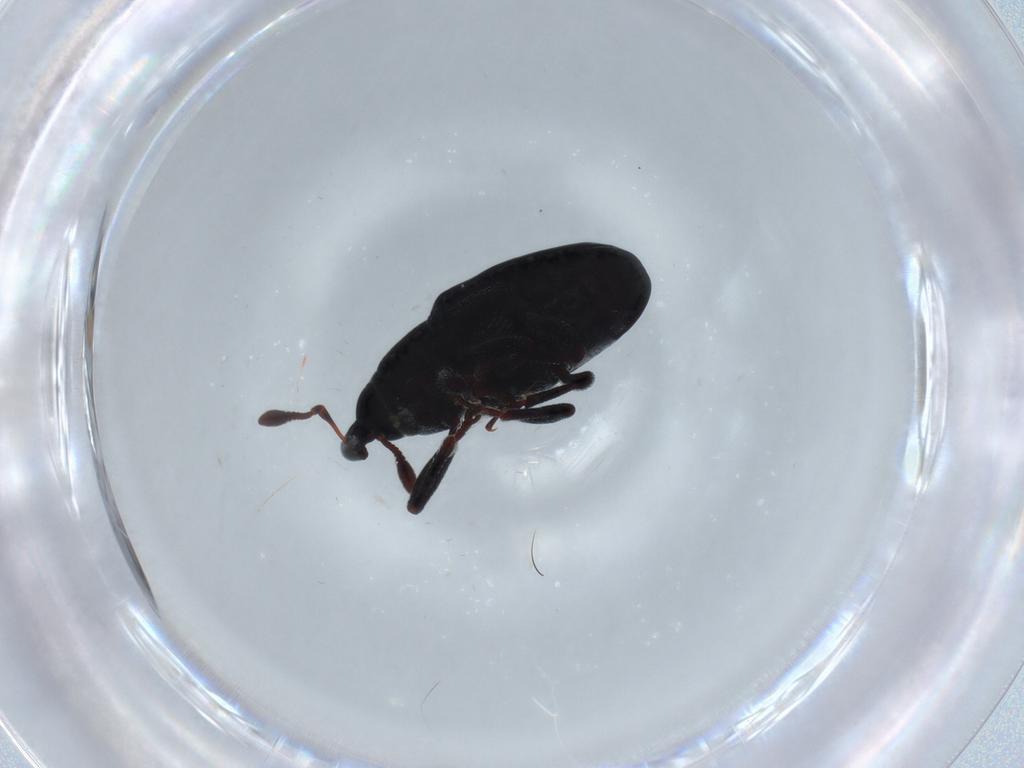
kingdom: Animalia
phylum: Arthropoda
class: Insecta
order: Coleoptera
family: Curculionidae
